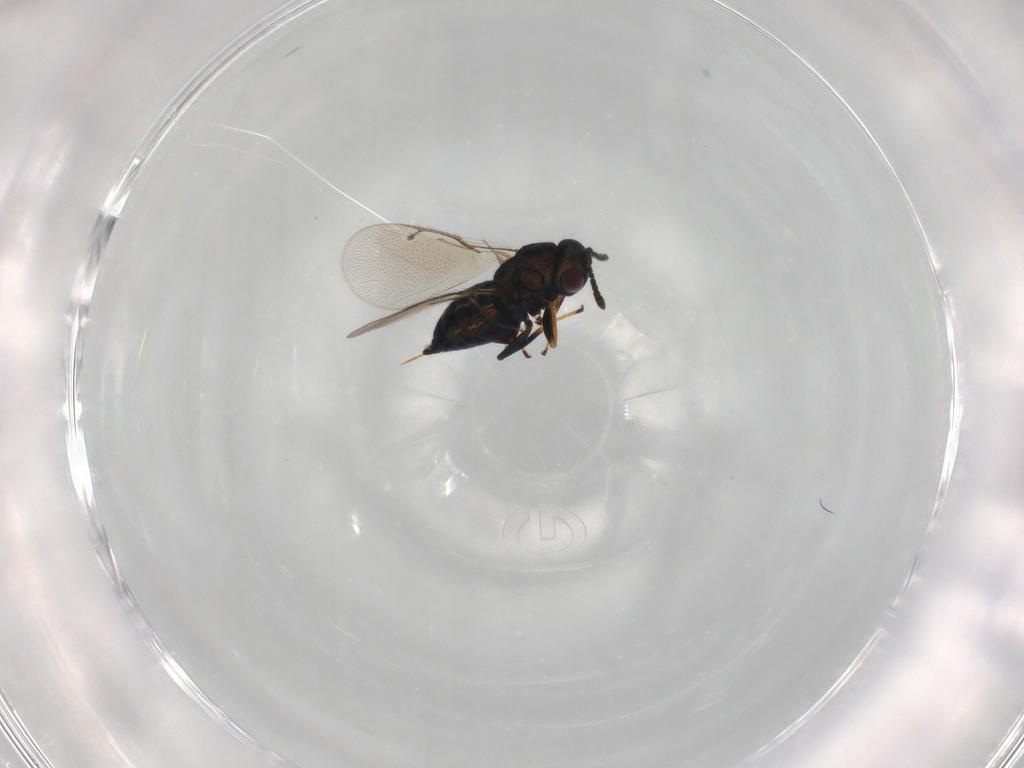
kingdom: Animalia
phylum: Arthropoda
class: Insecta
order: Hymenoptera
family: Pteromalidae
